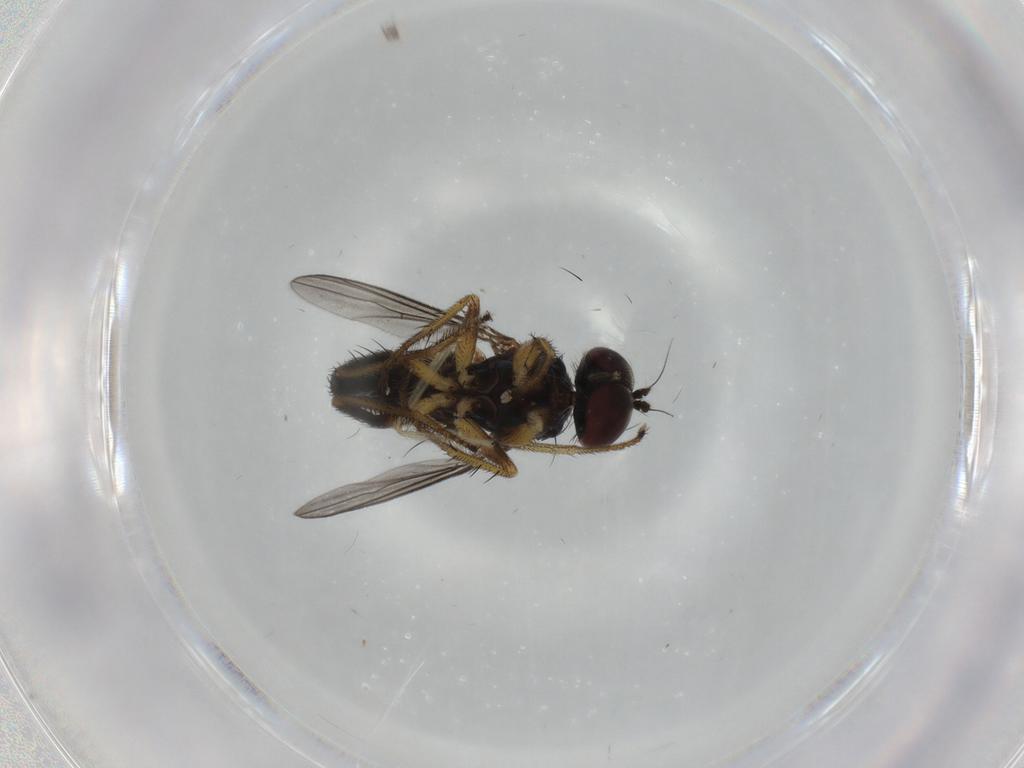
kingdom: Animalia
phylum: Arthropoda
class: Insecta
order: Diptera
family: Dolichopodidae
